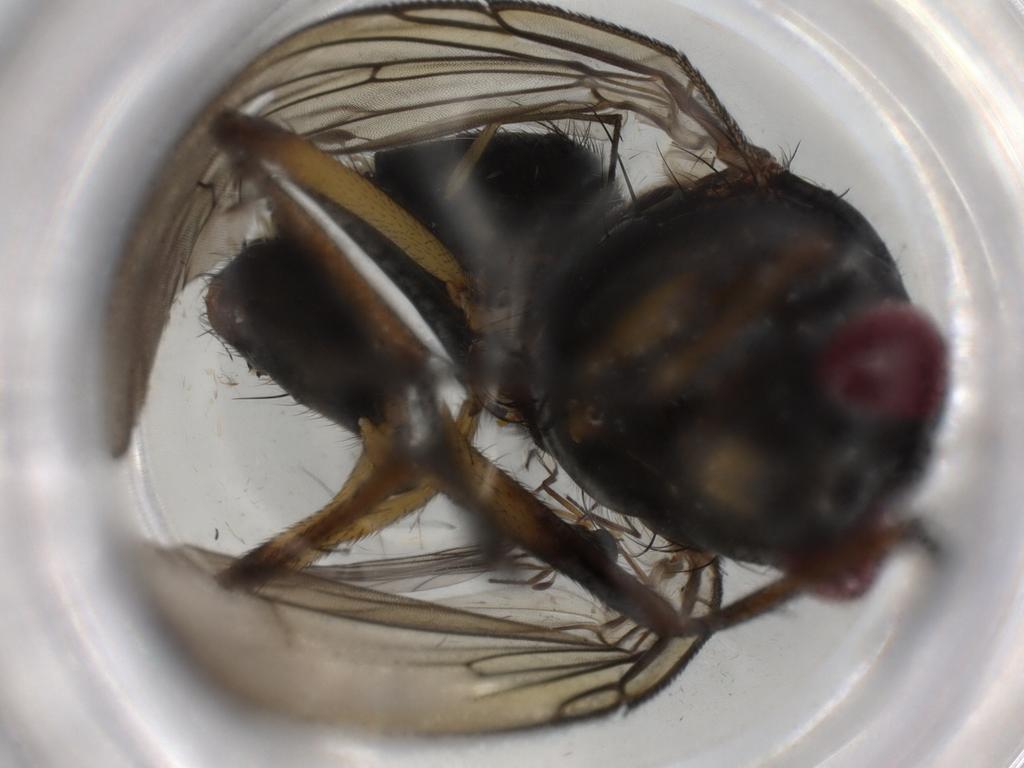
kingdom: Animalia
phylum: Arthropoda
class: Insecta
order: Diptera
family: Muscidae
